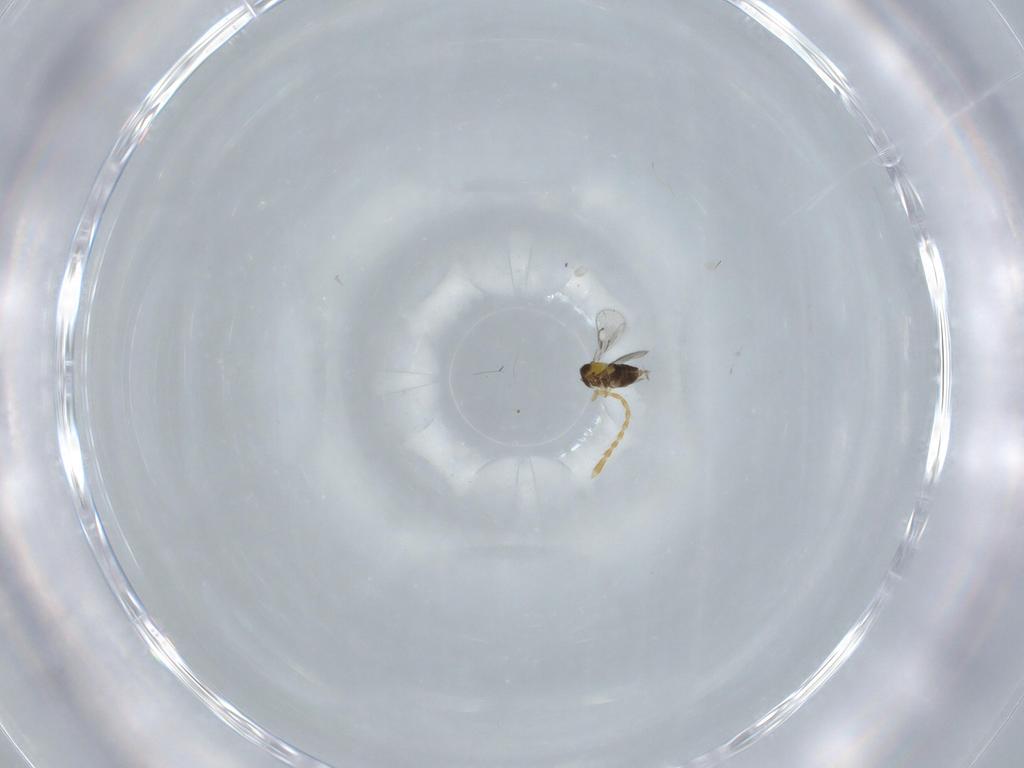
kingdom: Animalia
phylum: Arthropoda
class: Insecta
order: Hymenoptera
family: Trichogrammatidae
